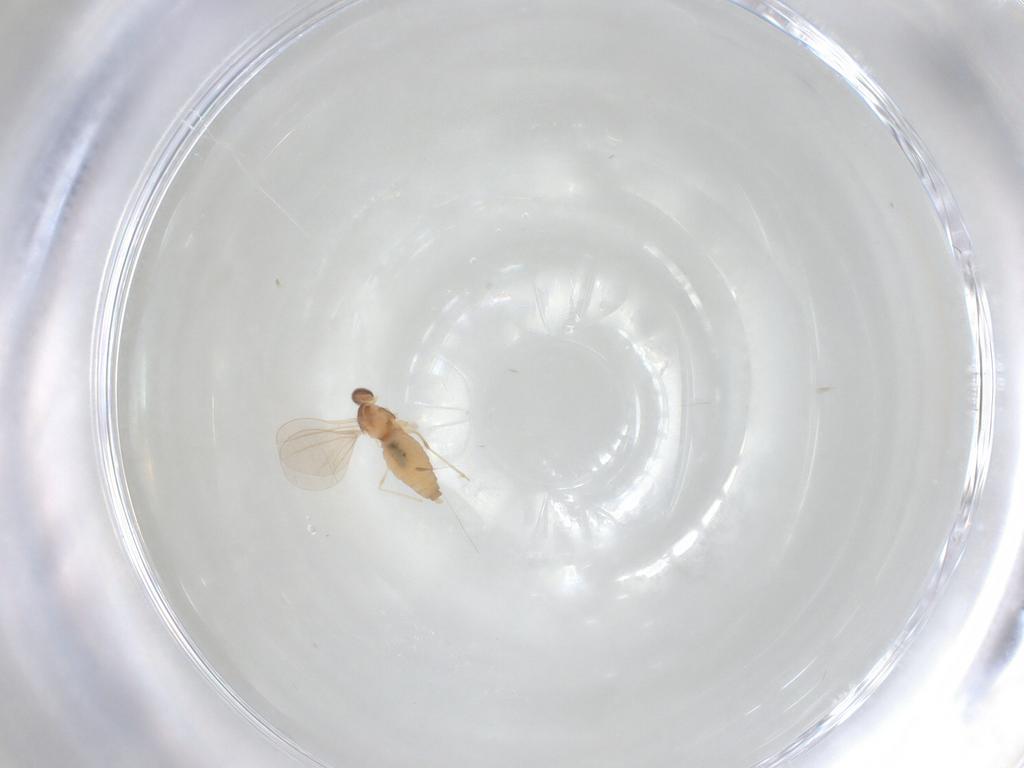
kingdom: Animalia
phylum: Arthropoda
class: Insecta
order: Diptera
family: Cecidomyiidae
